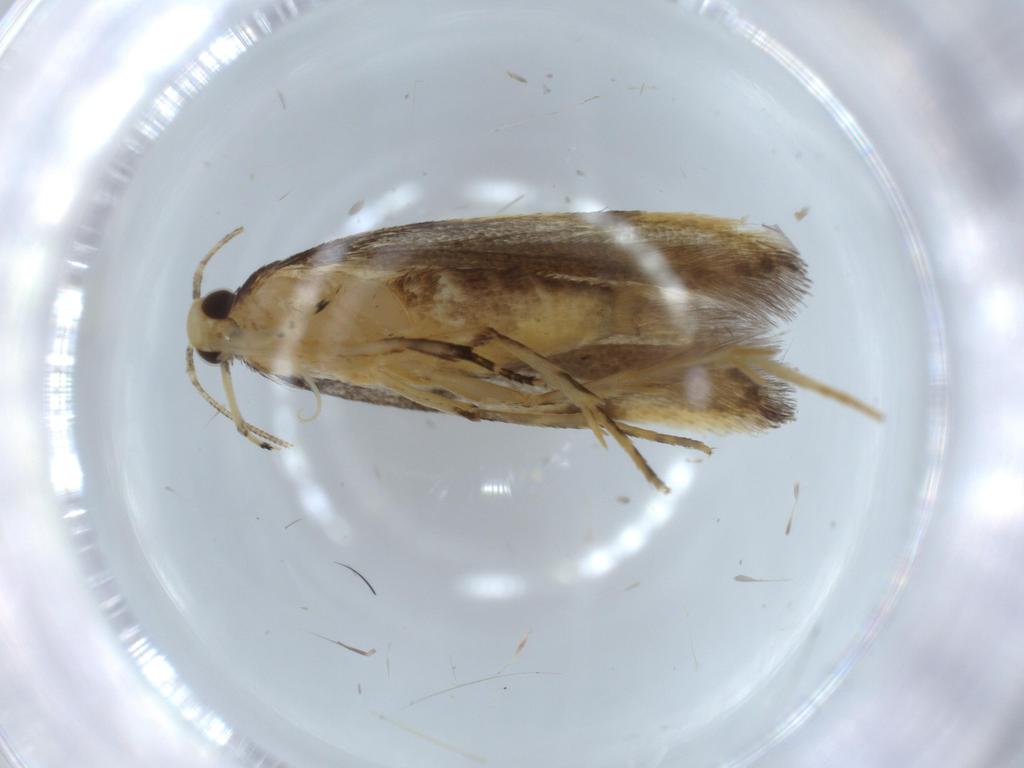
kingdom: Animalia
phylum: Arthropoda
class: Insecta
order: Lepidoptera
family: Autostichidae
